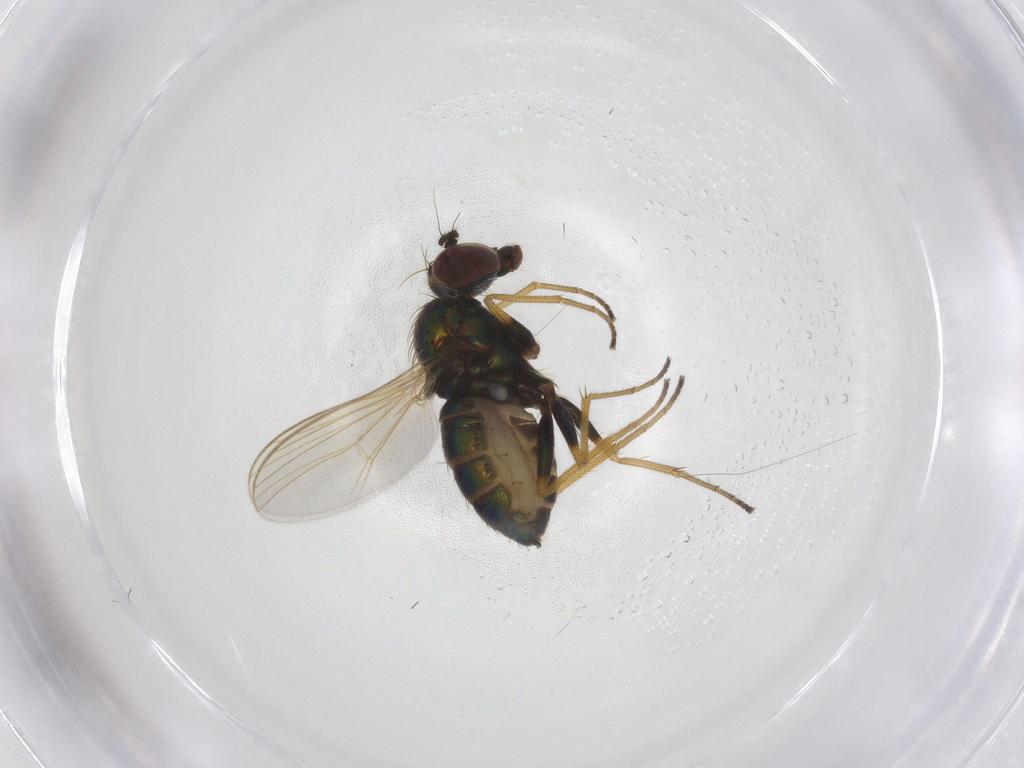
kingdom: Animalia
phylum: Arthropoda
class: Insecta
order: Diptera
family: Dolichopodidae
